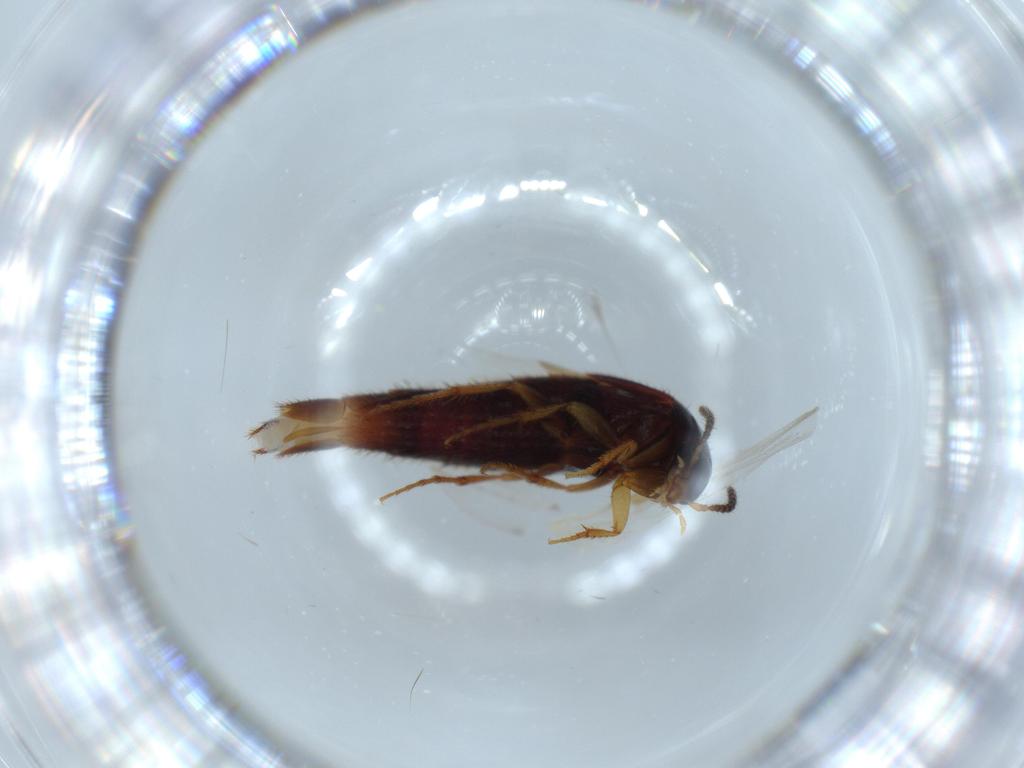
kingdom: Animalia
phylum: Arthropoda
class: Insecta
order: Coleoptera
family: Staphylinidae
